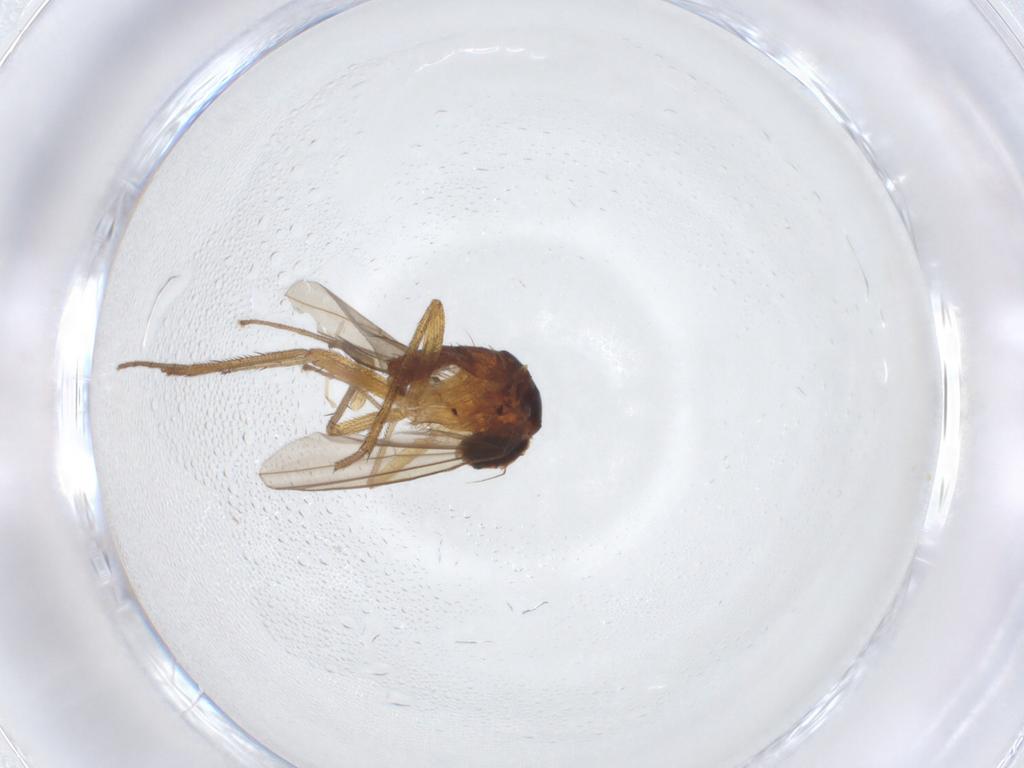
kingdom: Animalia
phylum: Arthropoda
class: Insecta
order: Diptera
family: Dolichopodidae
